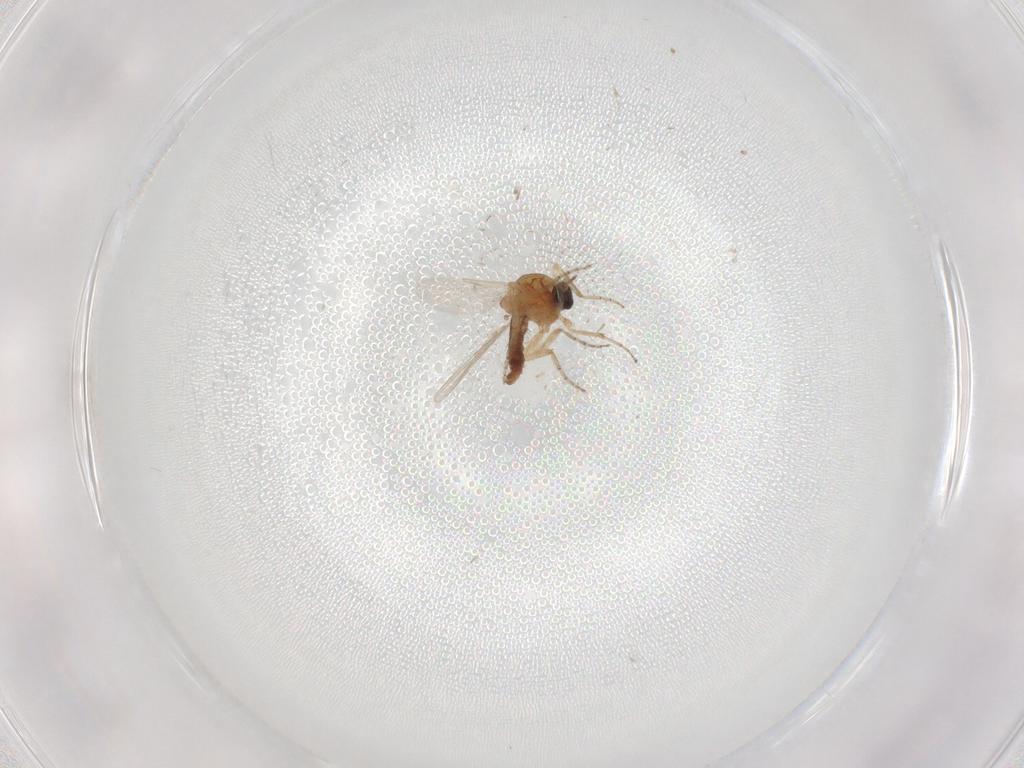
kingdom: Animalia
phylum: Arthropoda
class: Insecta
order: Diptera
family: Ceratopogonidae
